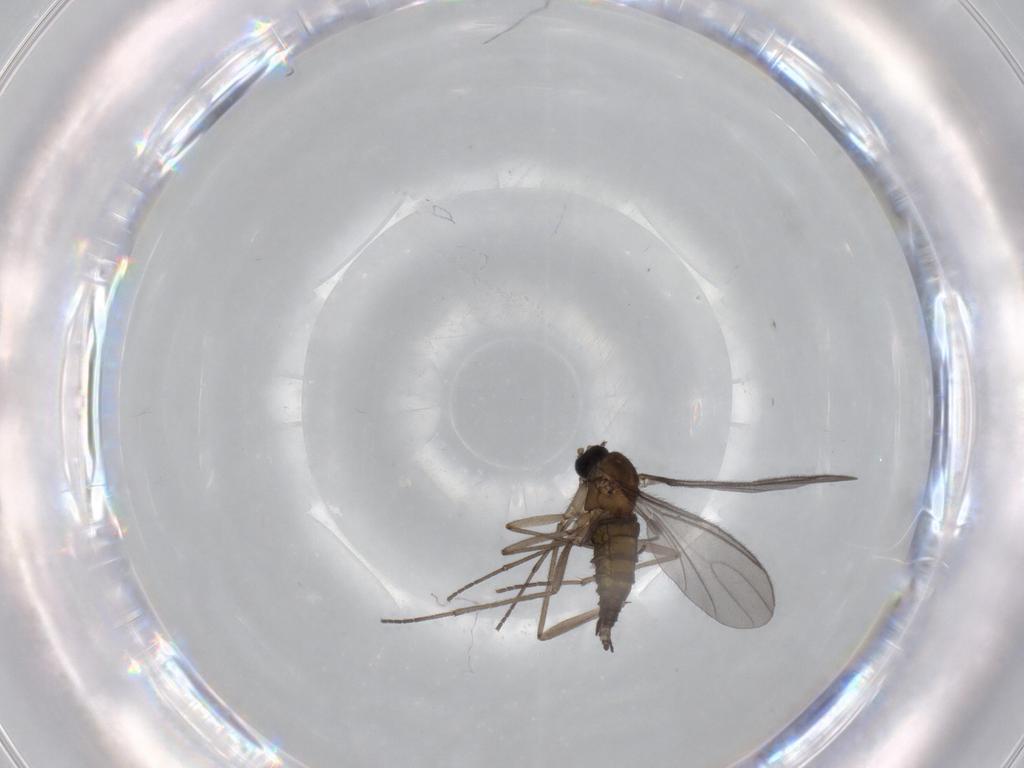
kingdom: Animalia
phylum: Arthropoda
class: Insecta
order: Diptera
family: Sciaridae
